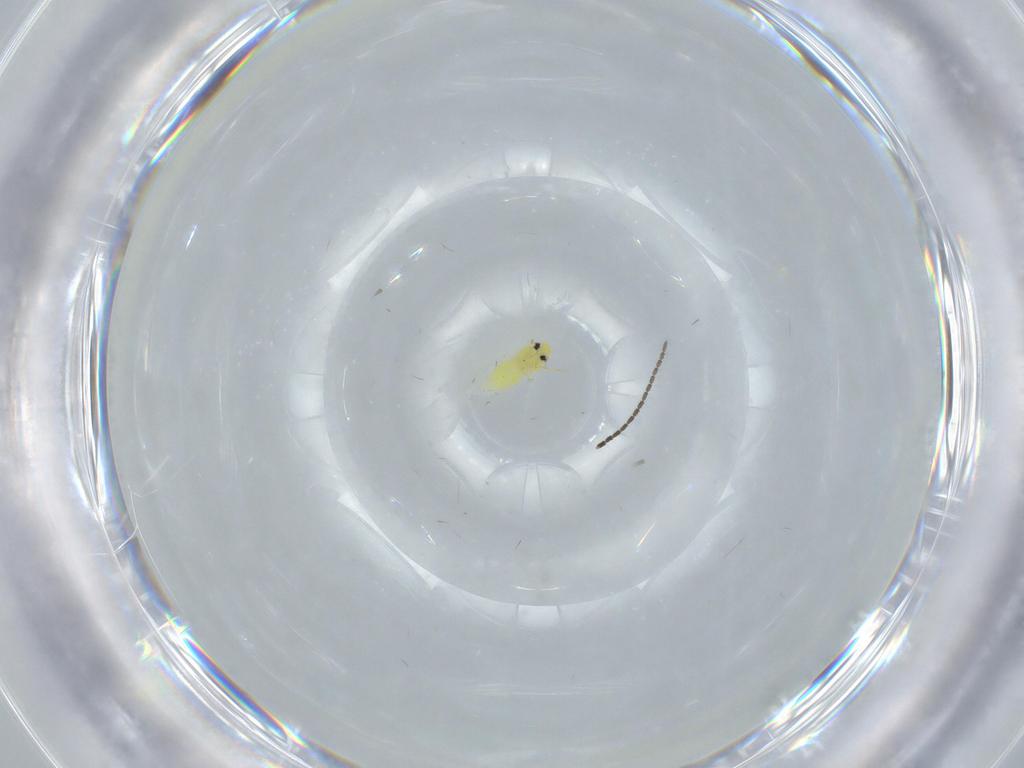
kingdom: Animalia
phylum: Arthropoda
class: Insecta
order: Hemiptera
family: Aleyrodidae
